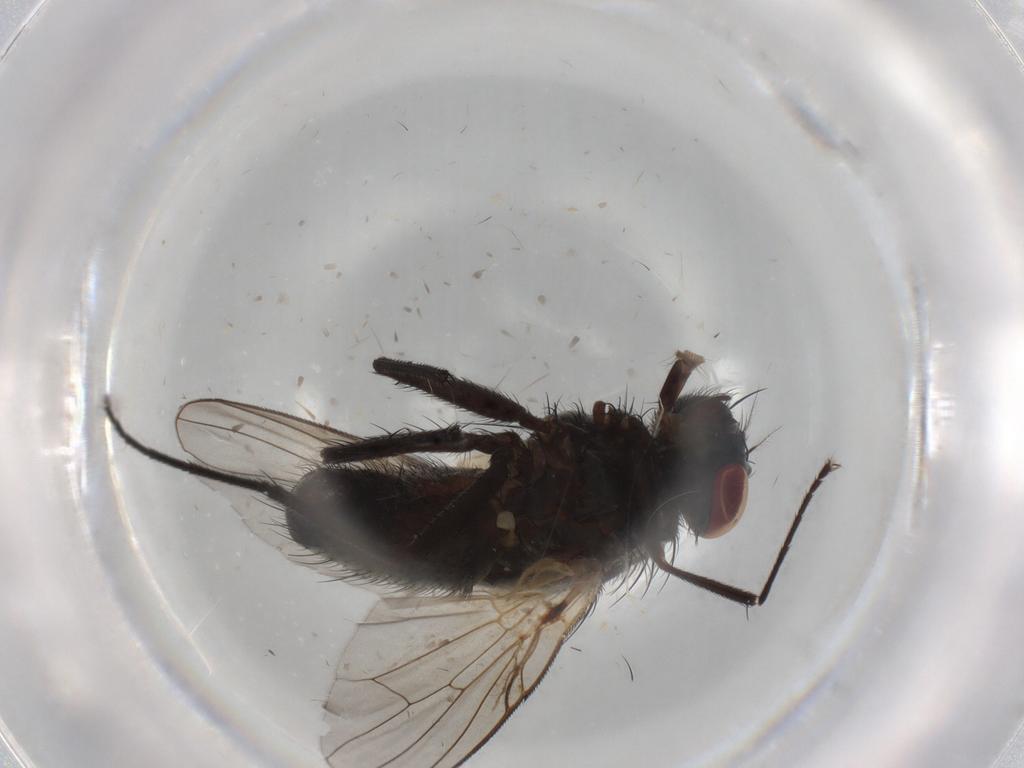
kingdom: Animalia
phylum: Arthropoda
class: Insecta
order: Diptera
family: Muscidae
